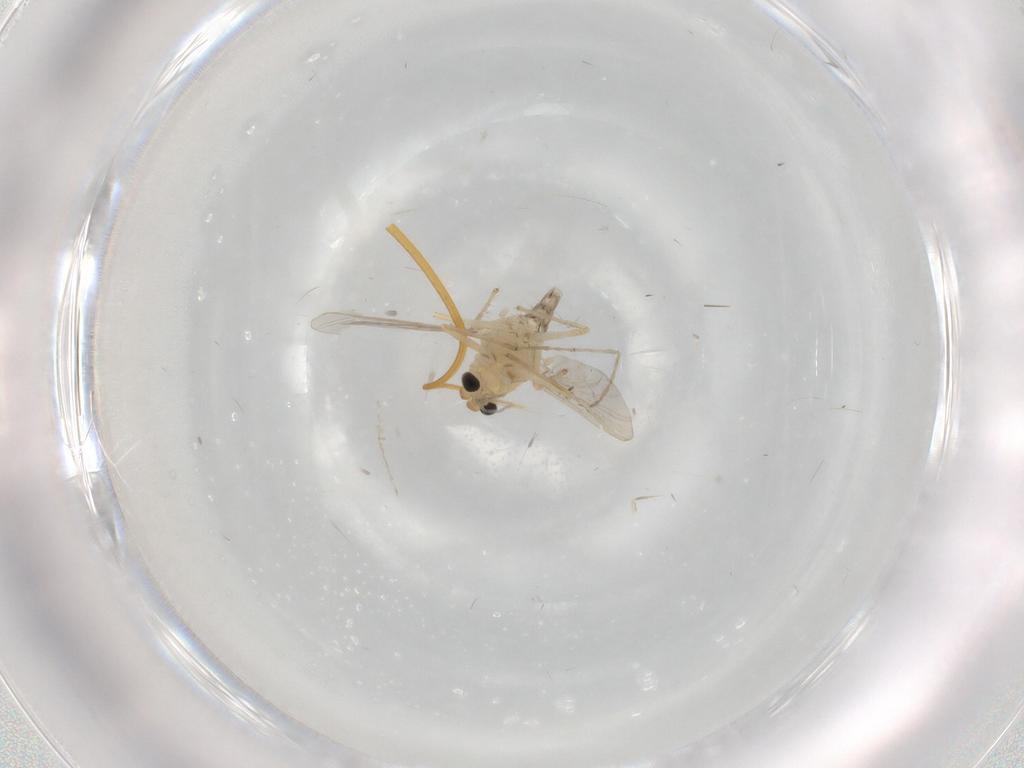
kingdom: Animalia
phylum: Arthropoda
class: Insecta
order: Diptera
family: Chironomidae
